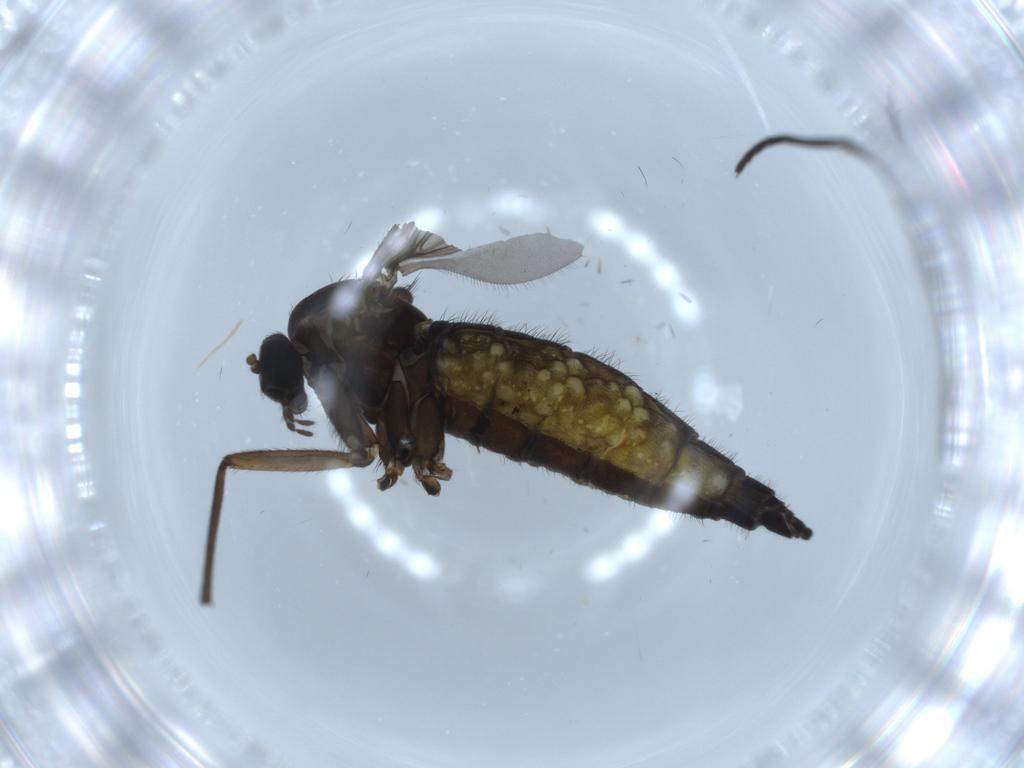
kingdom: Animalia
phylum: Arthropoda
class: Insecta
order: Diptera
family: Sciaridae
